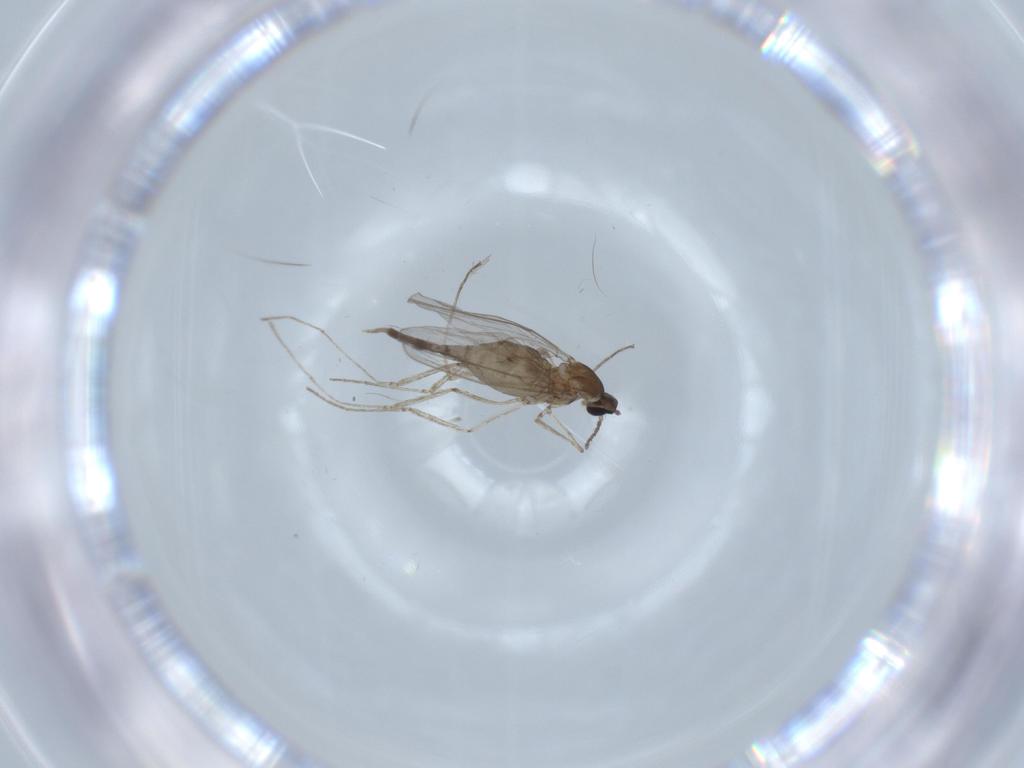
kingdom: Animalia
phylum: Arthropoda
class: Insecta
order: Diptera
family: Cecidomyiidae
